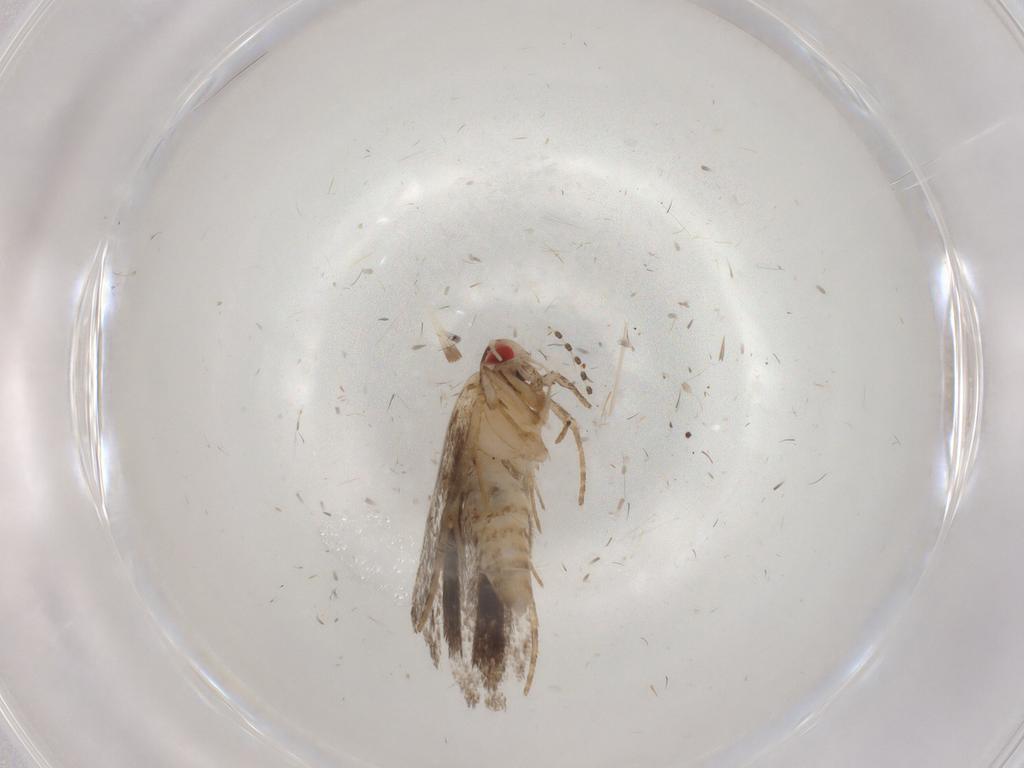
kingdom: Animalia
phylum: Arthropoda
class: Insecta
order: Lepidoptera
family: Gelechiidae
